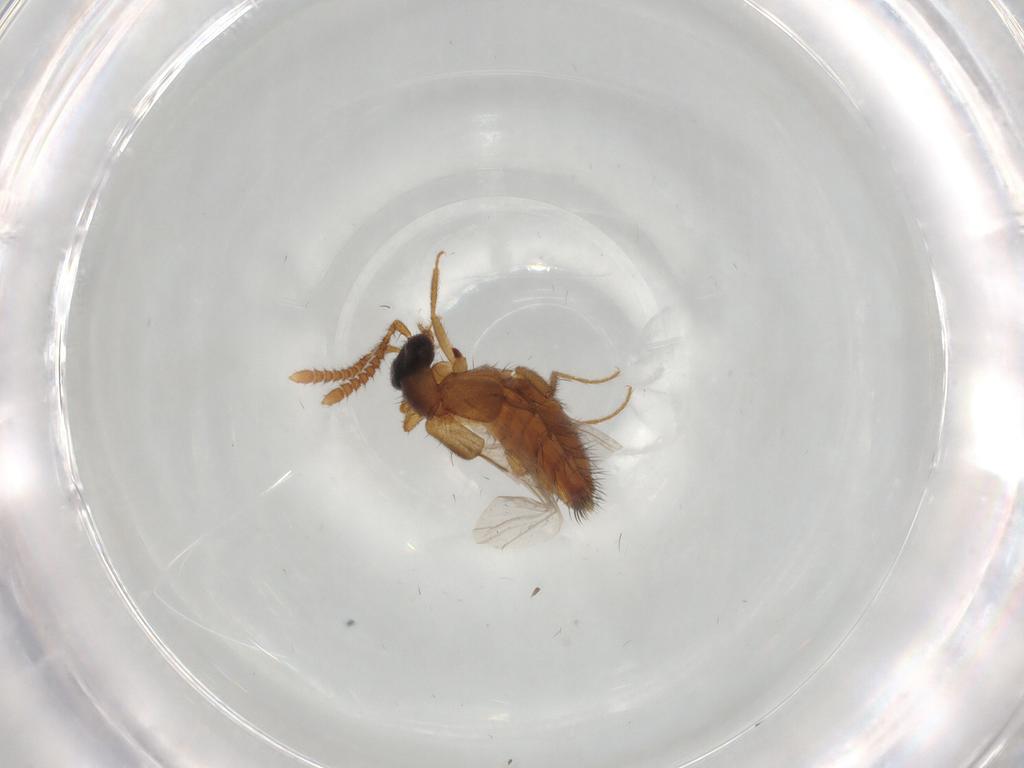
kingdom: Animalia
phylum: Arthropoda
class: Insecta
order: Coleoptera
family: Staphylinidae
